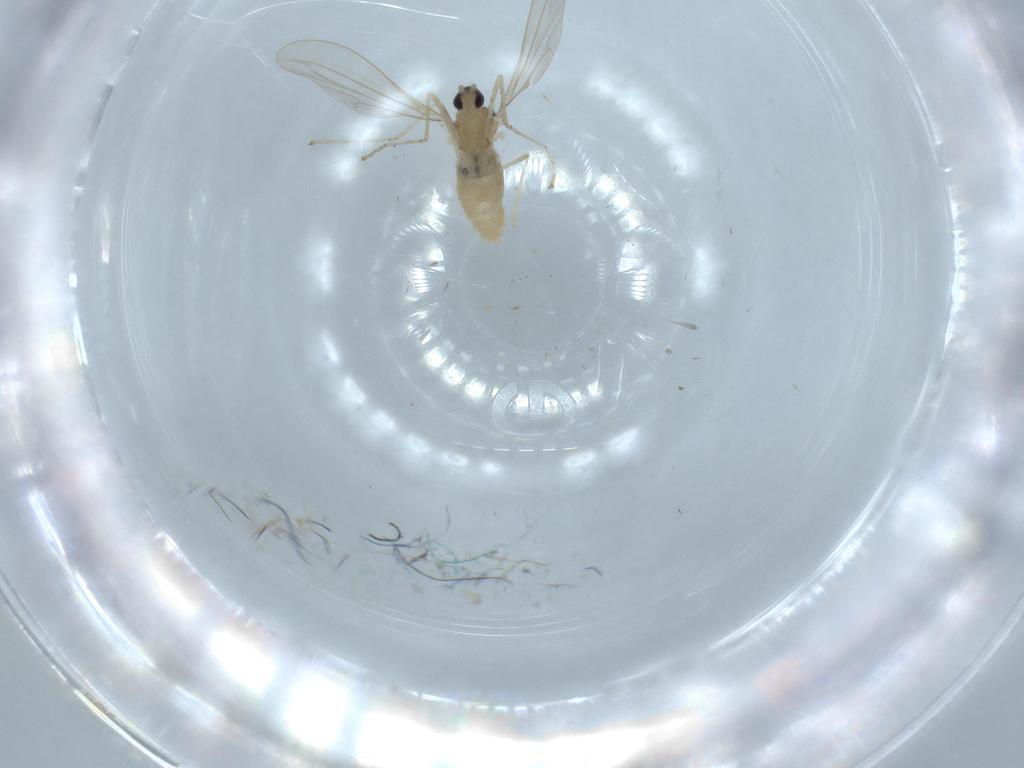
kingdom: Animalia
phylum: Arthropoda
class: Insecta
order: Diptera
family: Cecidomyiidae
